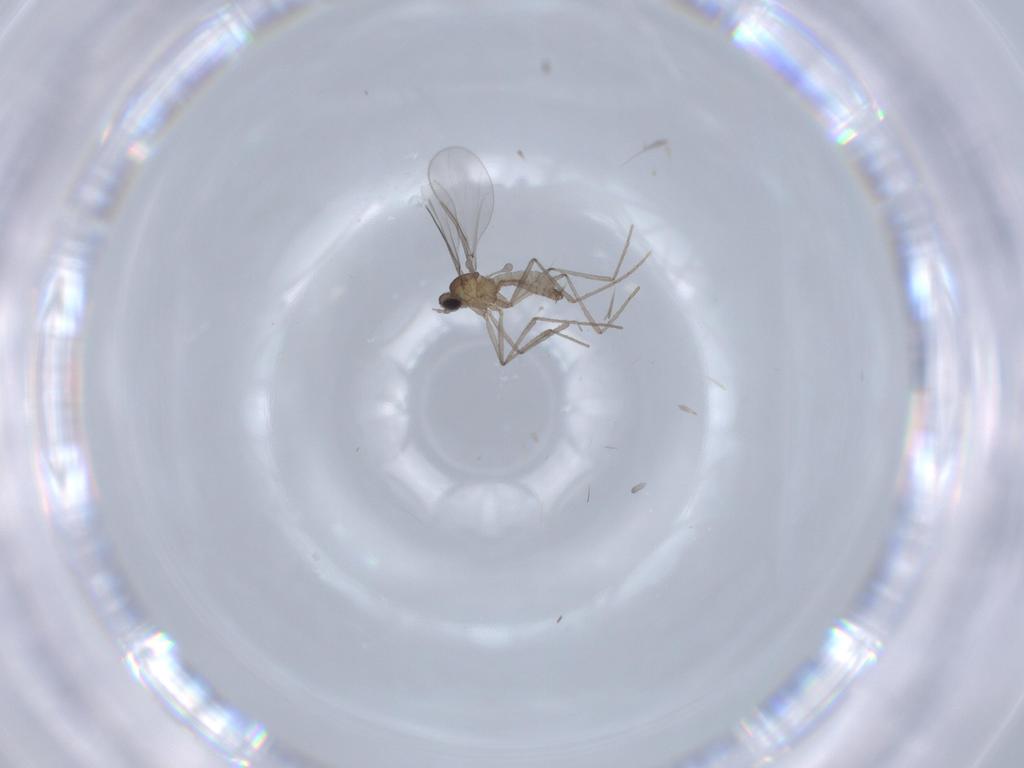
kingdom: Animalia
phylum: Arthropoda
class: Insecta
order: Diptera
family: Cecidomyiidae
